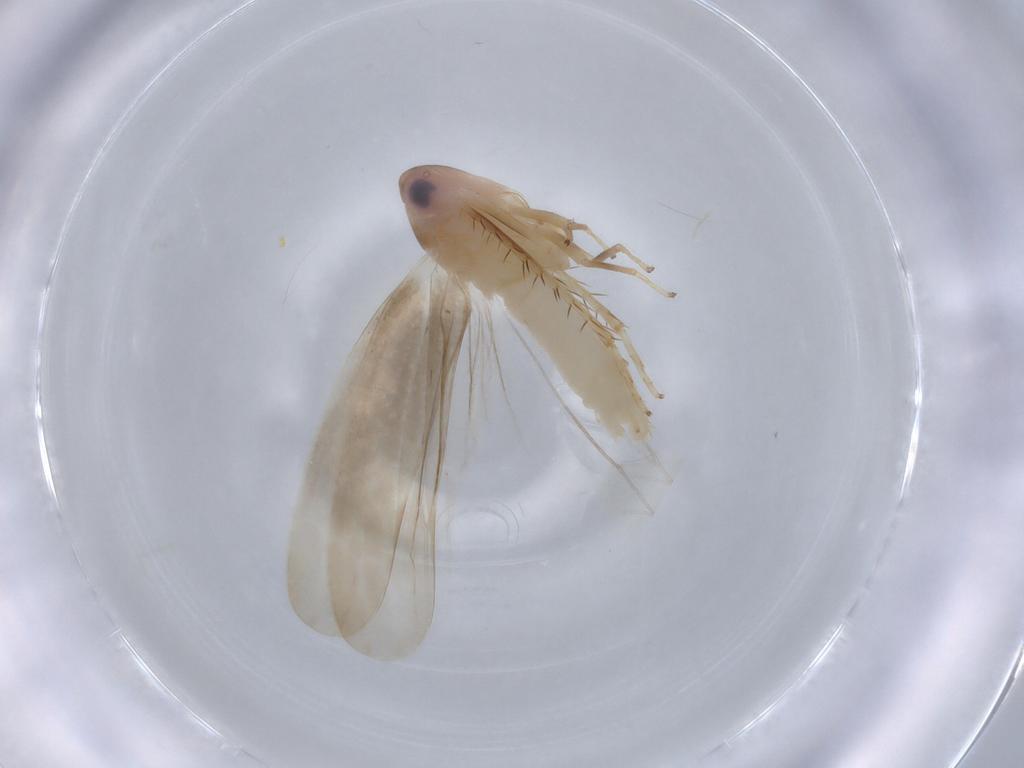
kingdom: Animalia
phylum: Arthropoda
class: Insecta
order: Hemiptera
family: Cicadellidae
